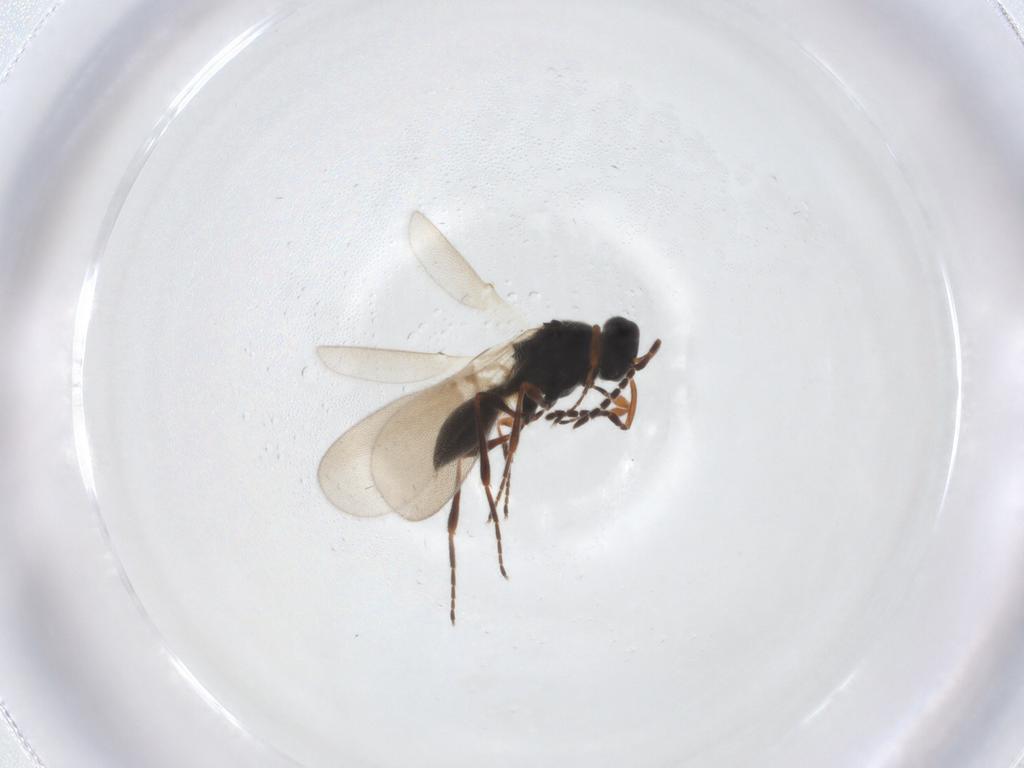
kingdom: Animalia
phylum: Arthropoda
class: Insecta
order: Hymenoptera
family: Platygastridae
